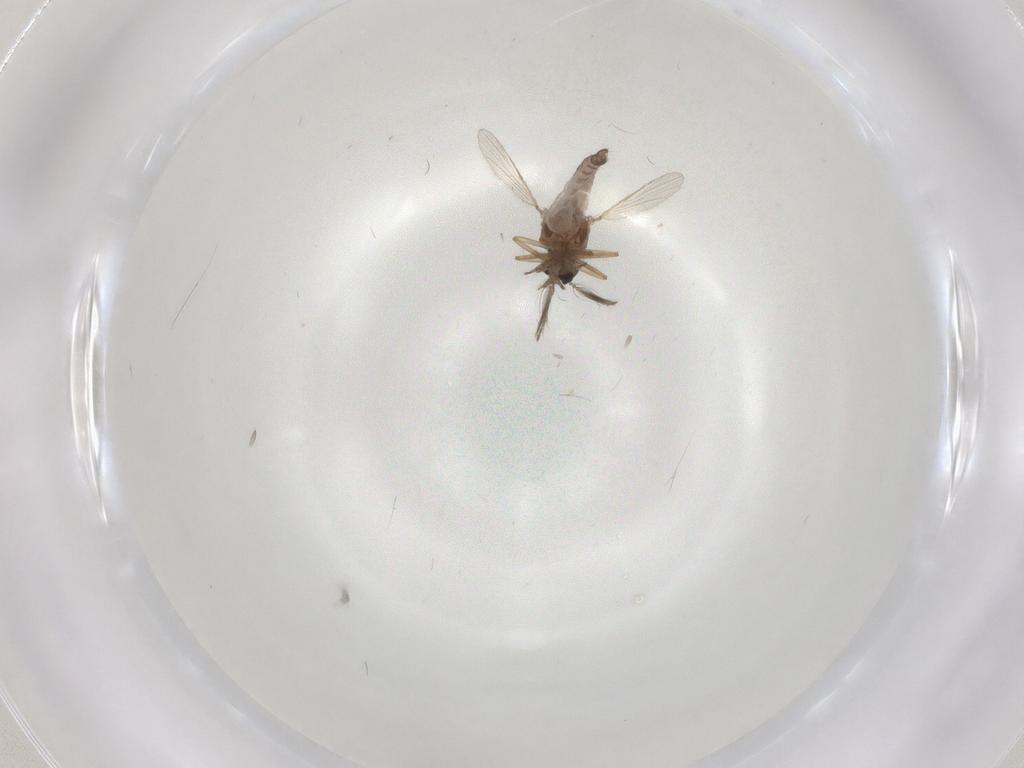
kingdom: Animalia
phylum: Arthropoda
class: Insecta
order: Diptera
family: Ceratopogonidae
